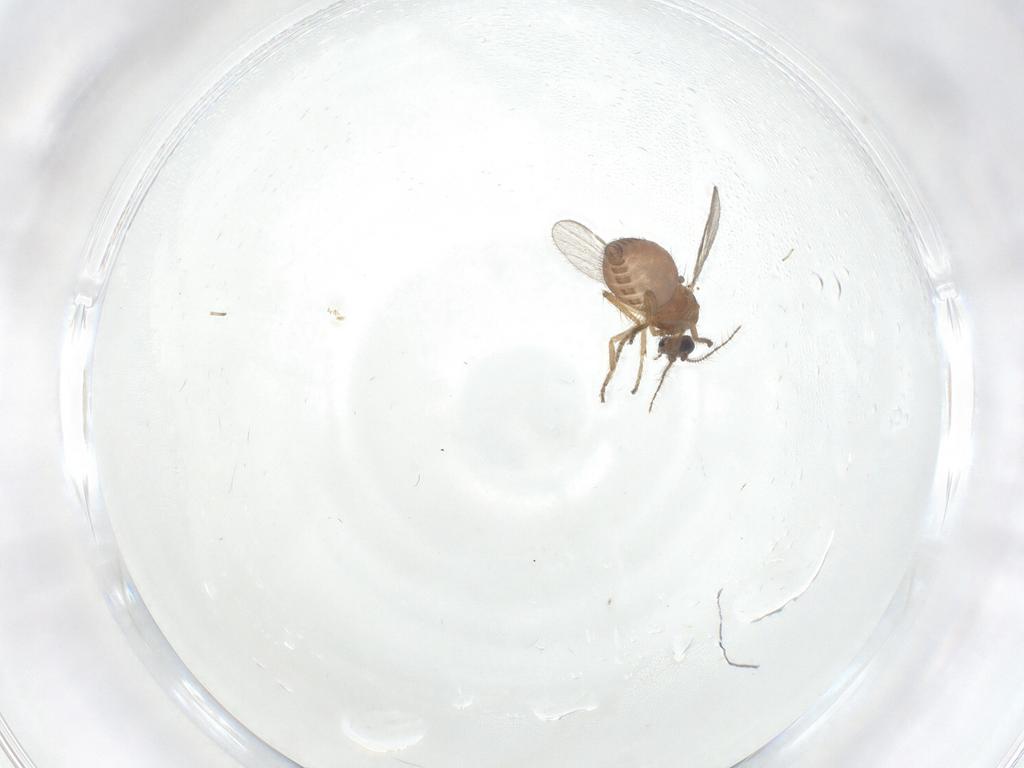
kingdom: Animalia
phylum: Arthropoda
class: Insecta
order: Diptera
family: Ceratopogonidae
